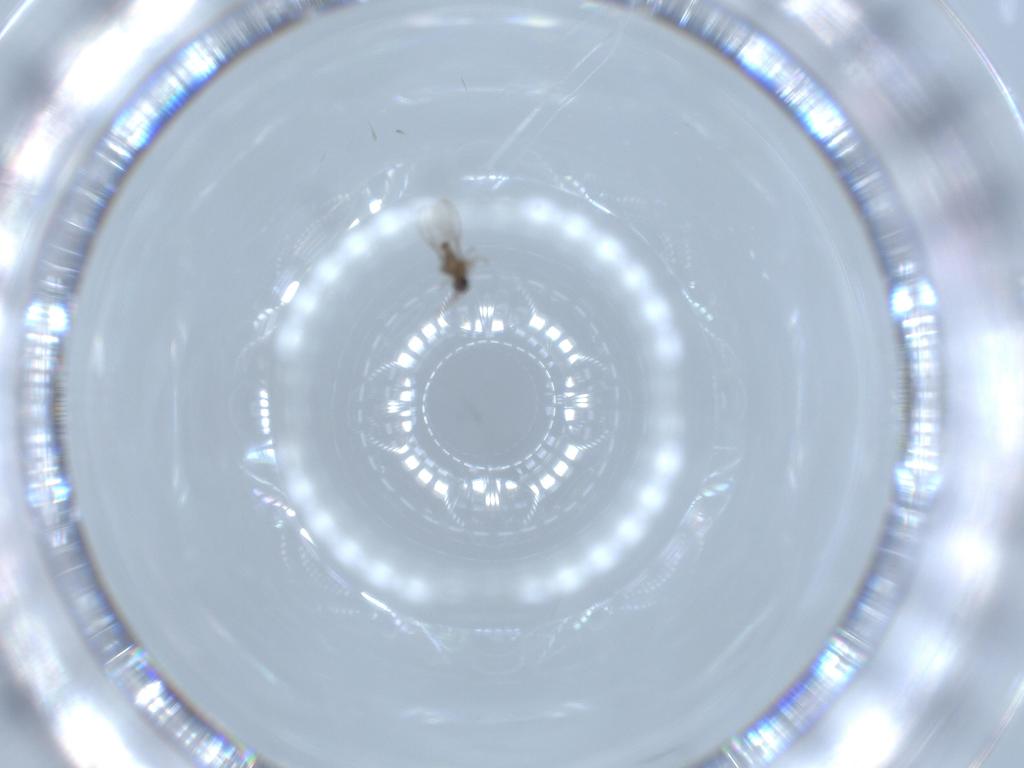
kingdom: Animalia
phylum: Arthropoda
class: Insecta
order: Diptera
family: Cecidomyiidae
